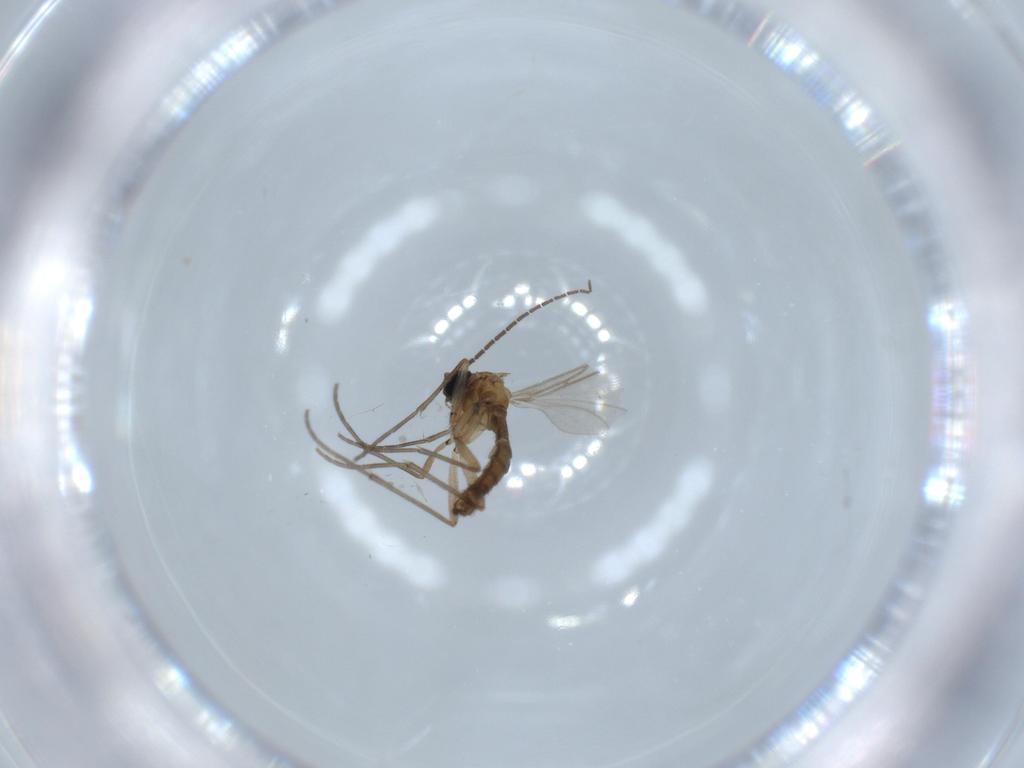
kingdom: Animalia
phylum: Arthropoda
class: Insecta
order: Diptera
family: Sciaridae
